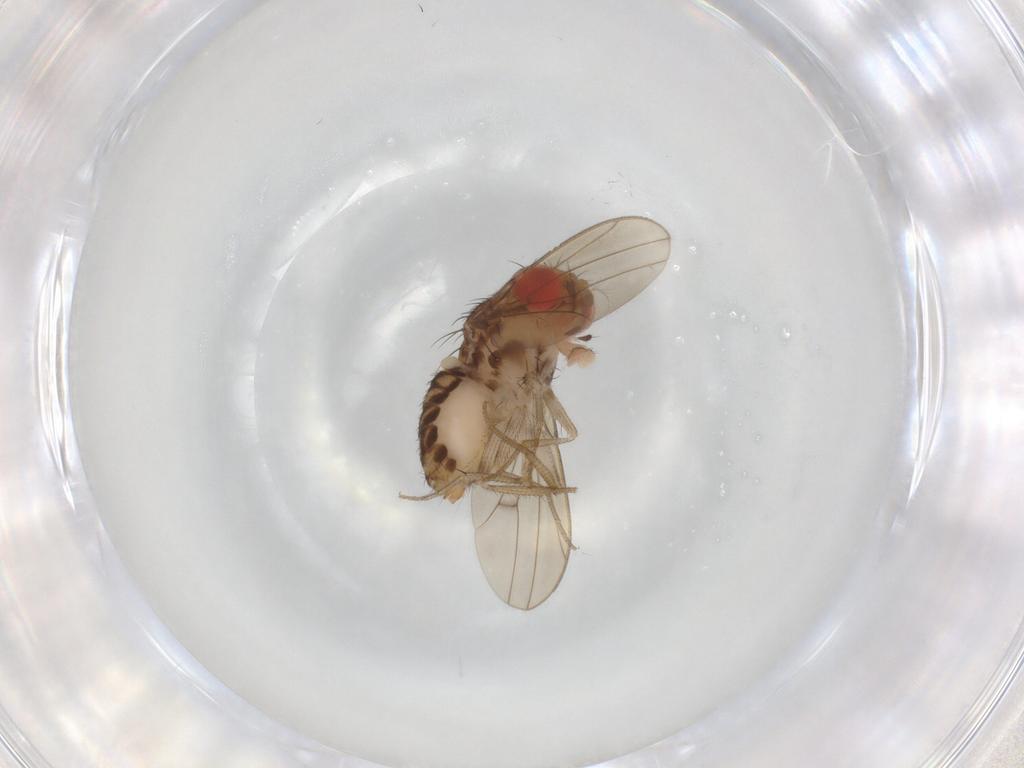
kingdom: Animalia
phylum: Arthropoda
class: Insecta
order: Diptera
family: Drosophilidae
